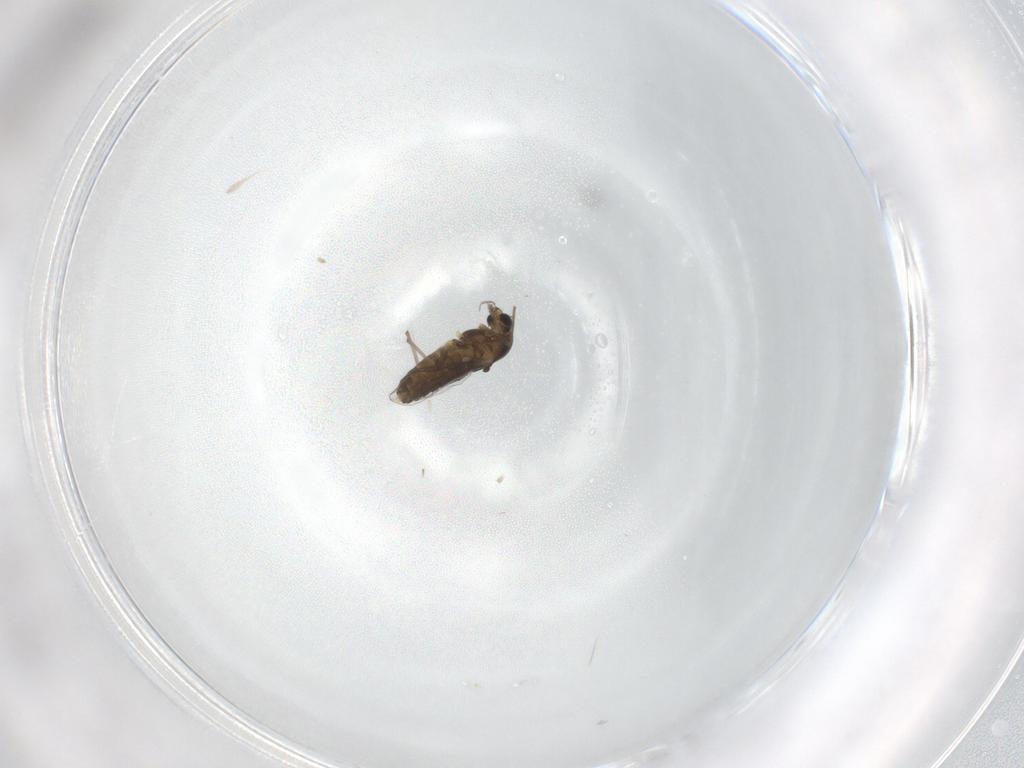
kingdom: Animalia
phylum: Arthropoda
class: Insecta
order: Diptera
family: Chironomidae
